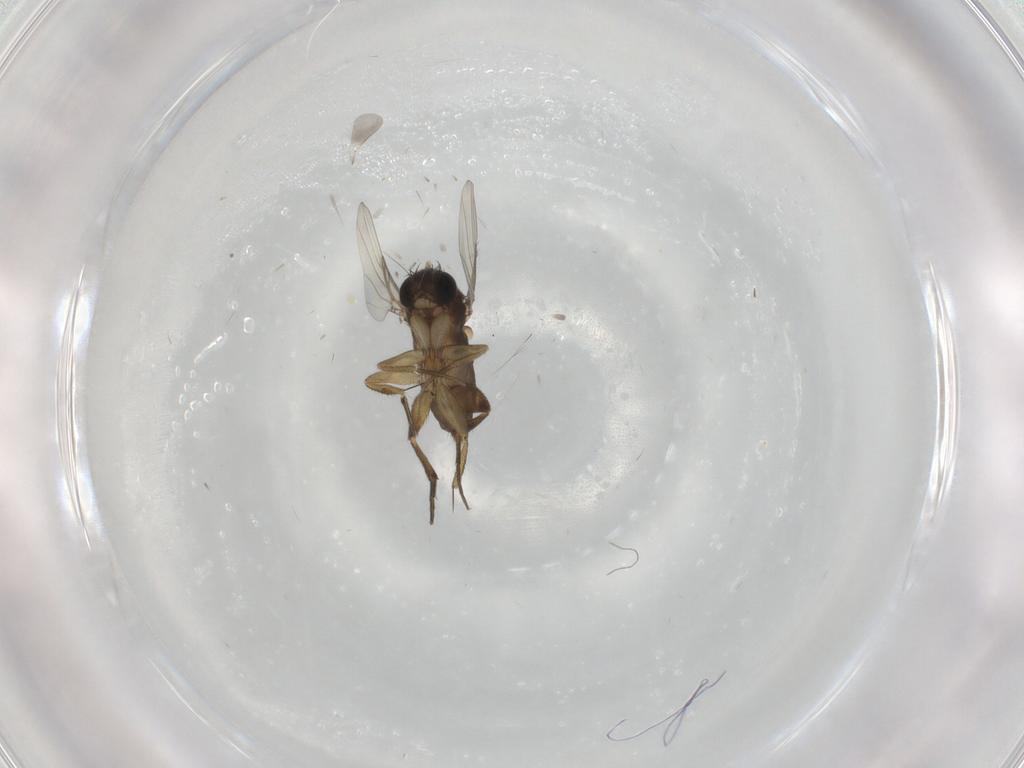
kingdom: Animalia
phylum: Arthropoda
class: Insecta
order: Diptera
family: Phoridae
